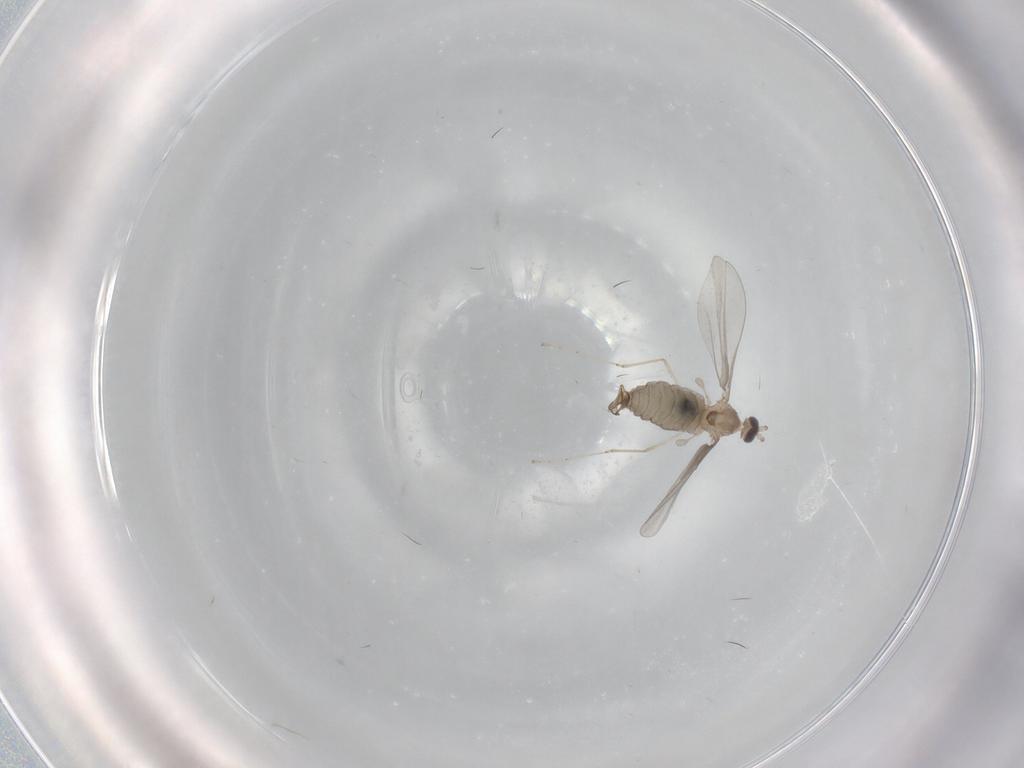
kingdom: Animalia
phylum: Arthropoda
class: Insecta
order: Diptera
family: Cecidomyiidae
